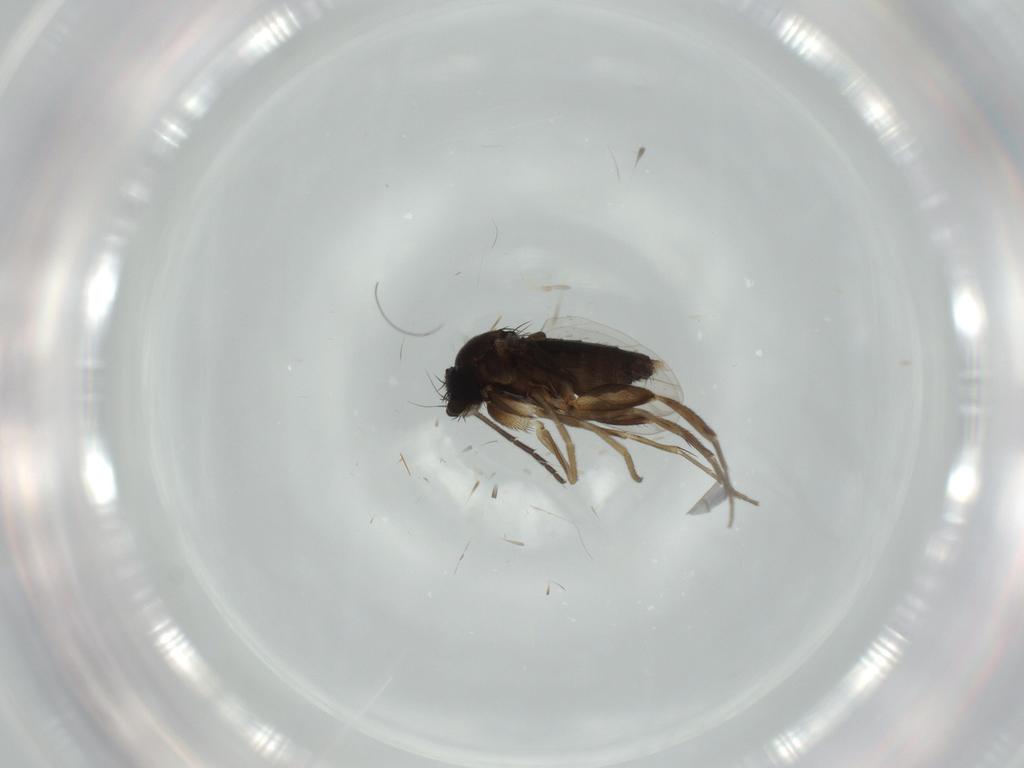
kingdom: Animalia
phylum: Arthropoda
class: Insecta
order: Diptera
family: Phoridae
